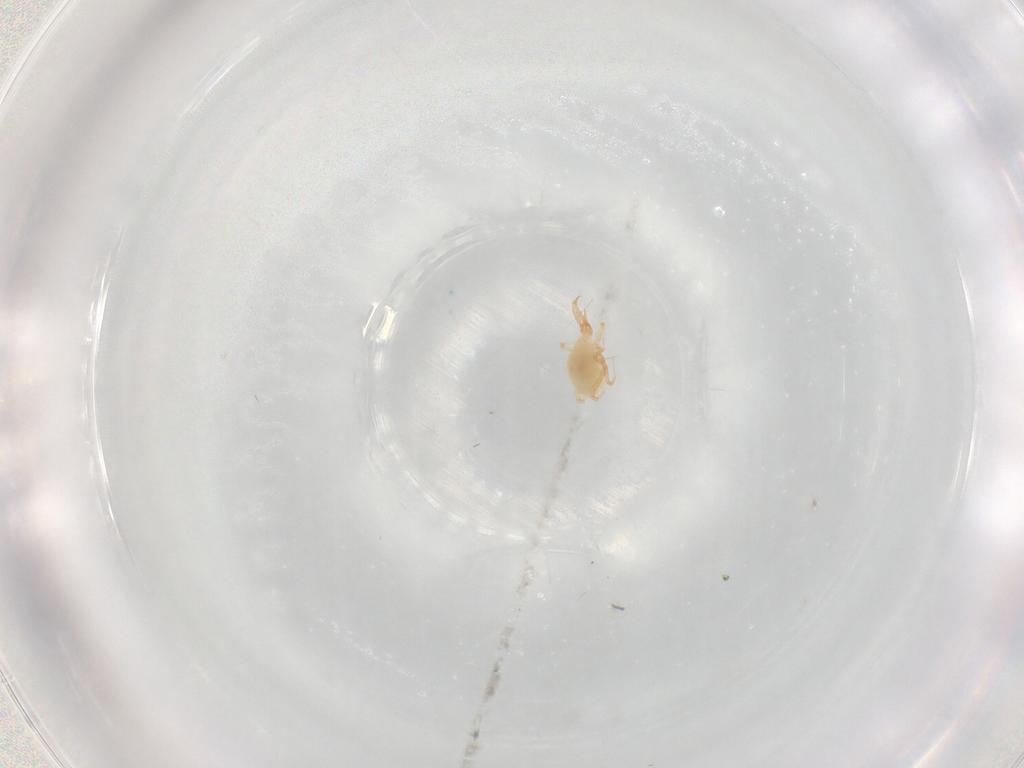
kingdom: Animalia
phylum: Arthropoda
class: Arachnida
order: Trombidiformes
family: Cunaxidae
